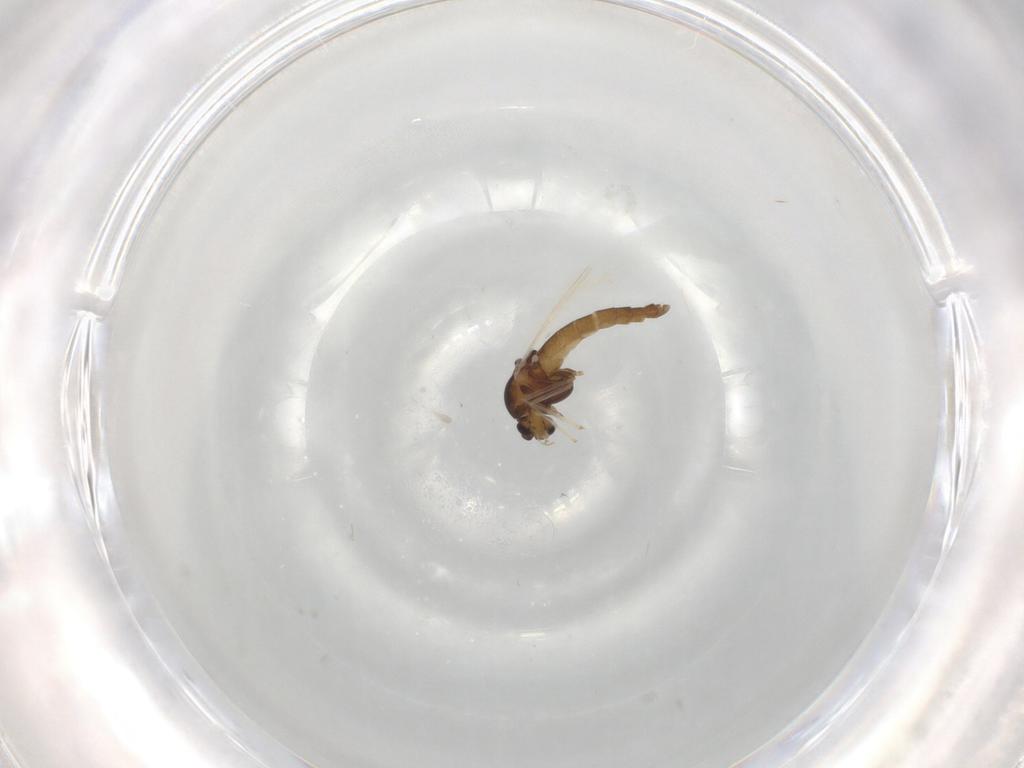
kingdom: Animalia
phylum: Arthropoda
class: Insecta
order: Diptera
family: Chironomidae
